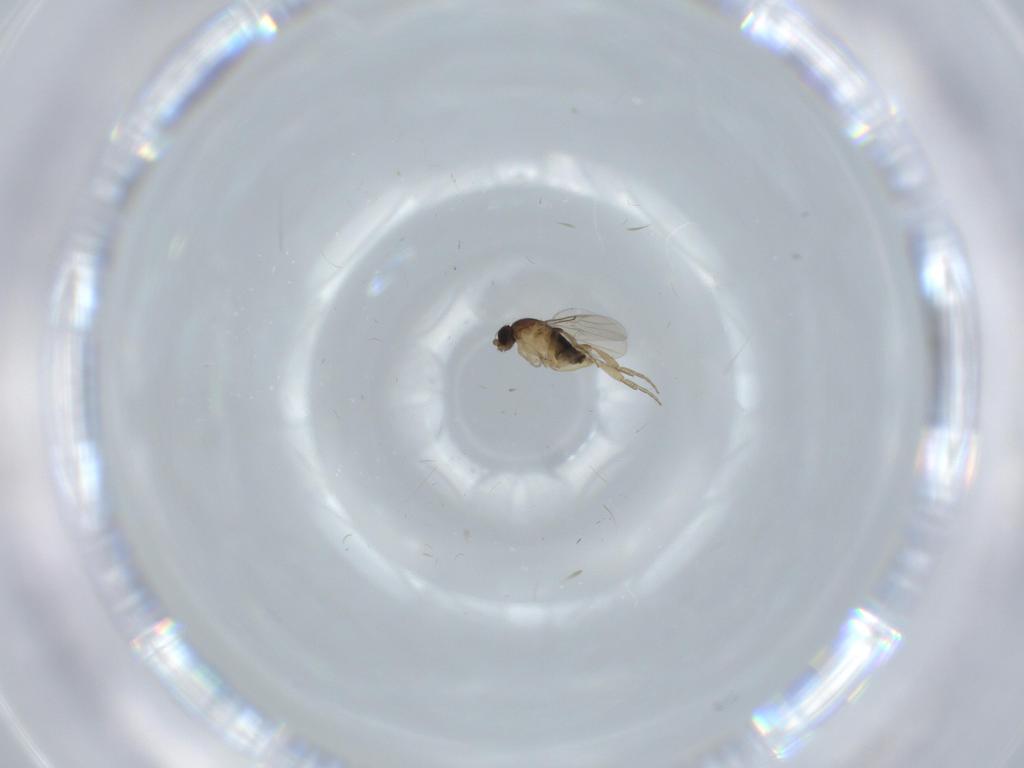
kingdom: Animalia
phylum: Arthropoda
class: Insecta
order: Diptera
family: Phoridae
